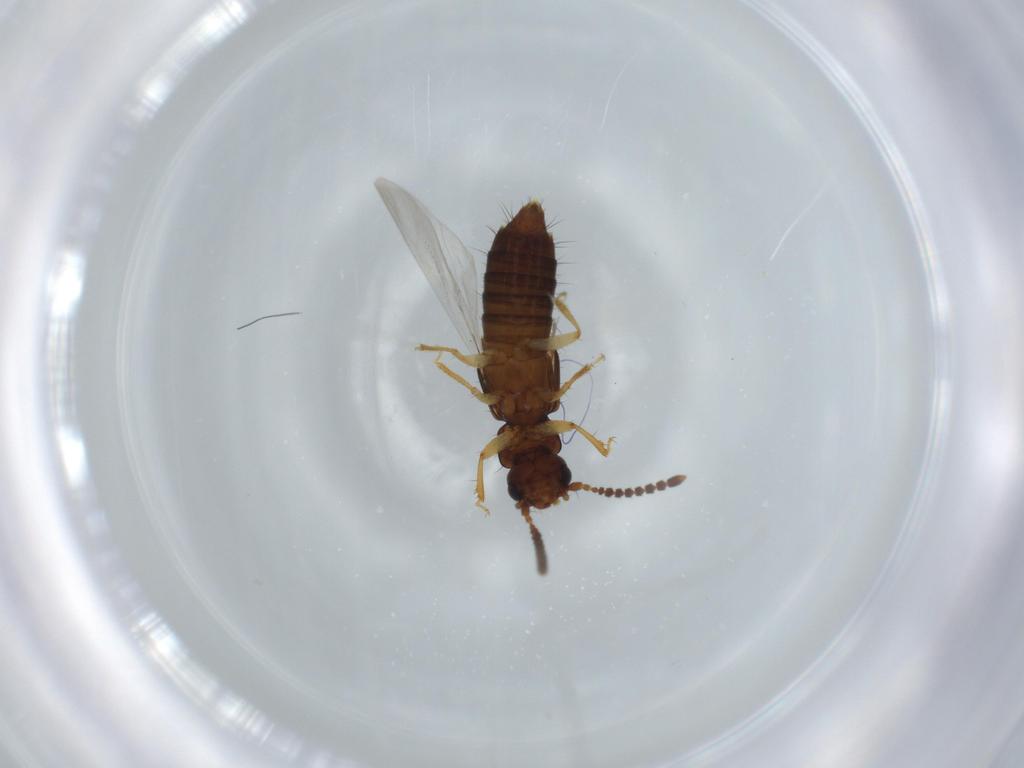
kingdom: Animalia
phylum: Arthropoda
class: Insecta
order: Coleoptera
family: Staphylinidae
